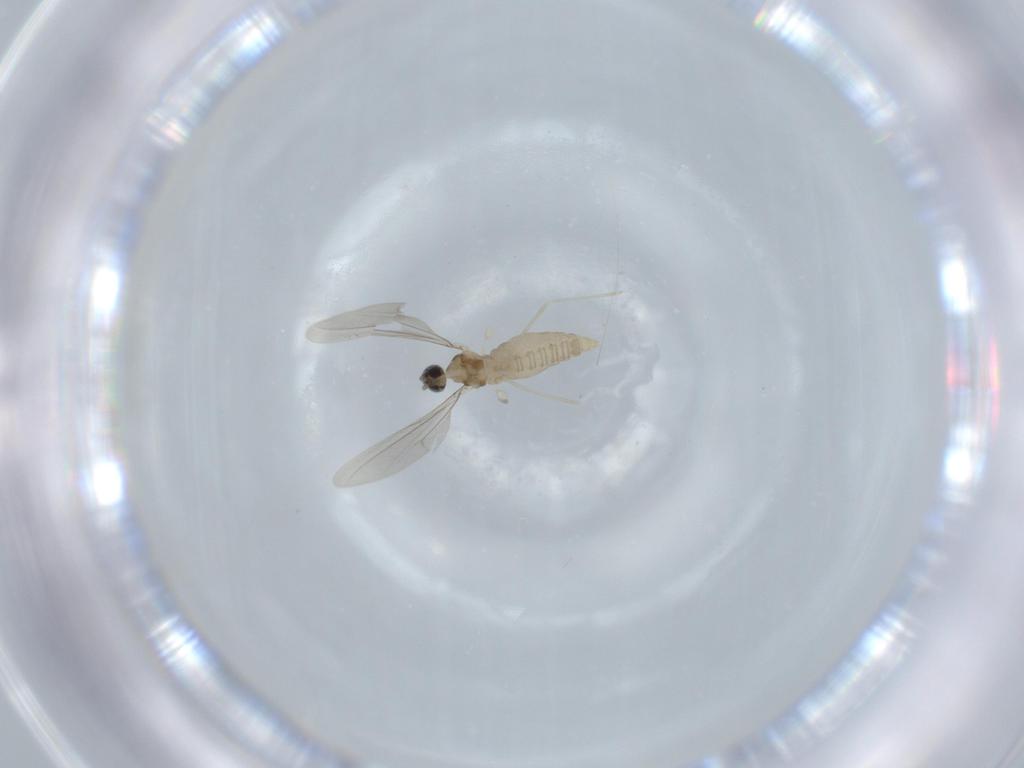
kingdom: Animalia
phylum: Arthropoda
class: Insecta
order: Diptera
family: Cecidomyiidae
